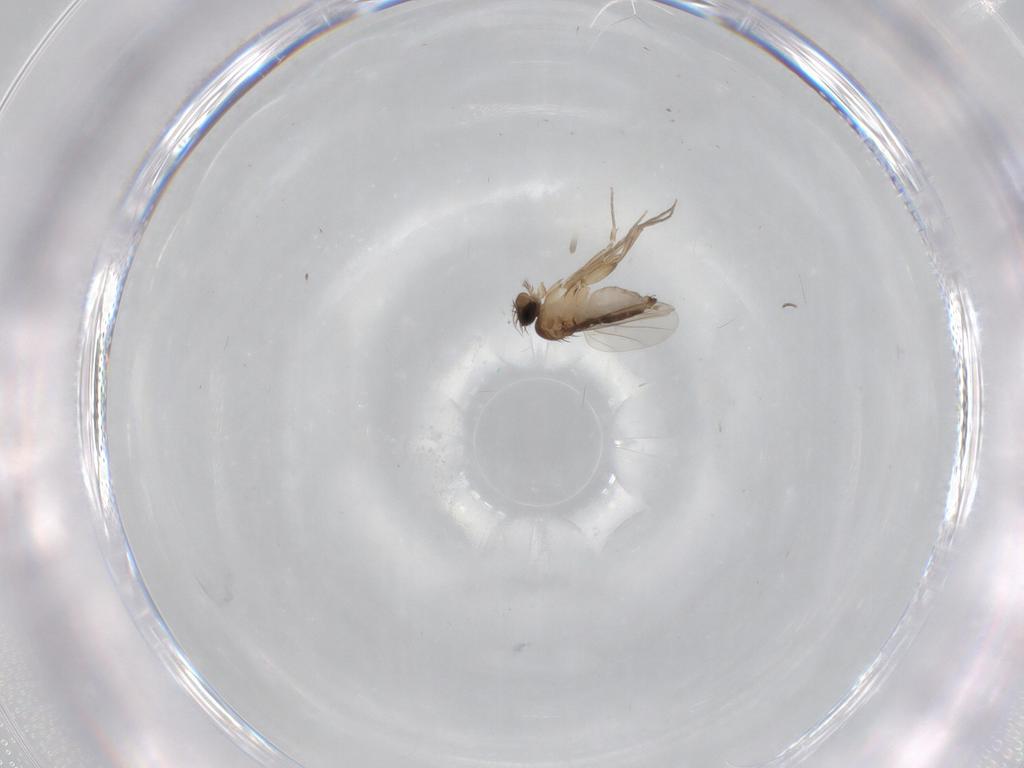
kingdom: Animalia
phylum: Arthropoda
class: Insecta
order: Diptera
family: Phoridae
